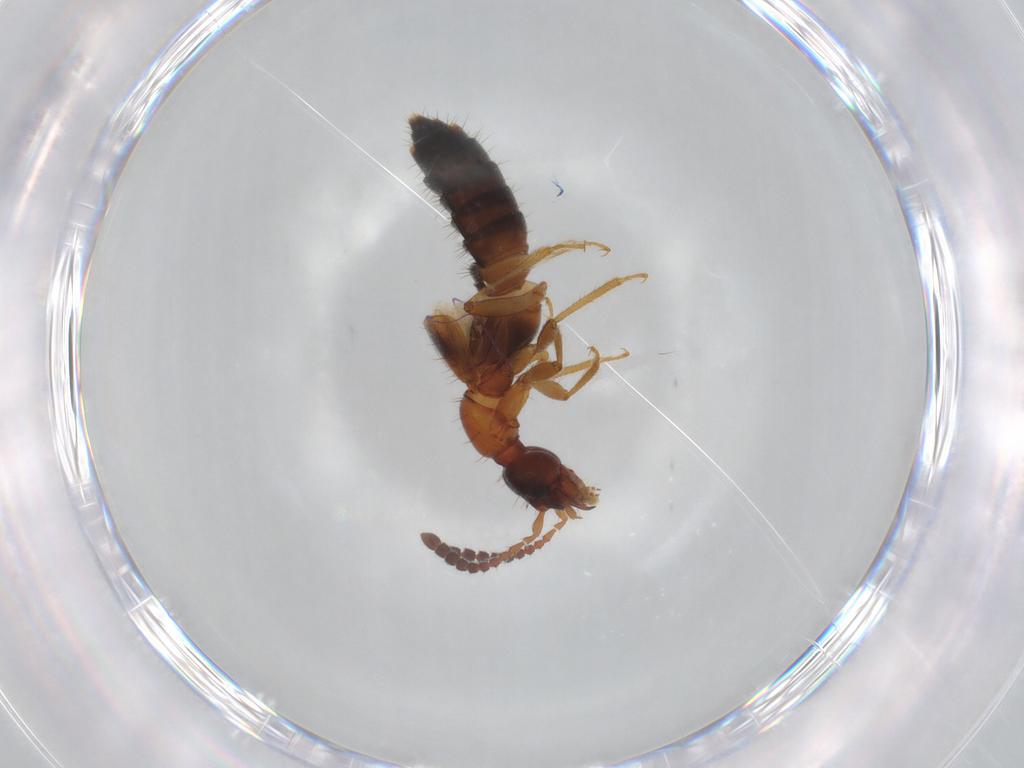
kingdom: Animalia
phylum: Arthropoda
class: Insecta
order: Coleoptera
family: Staphylinidae
